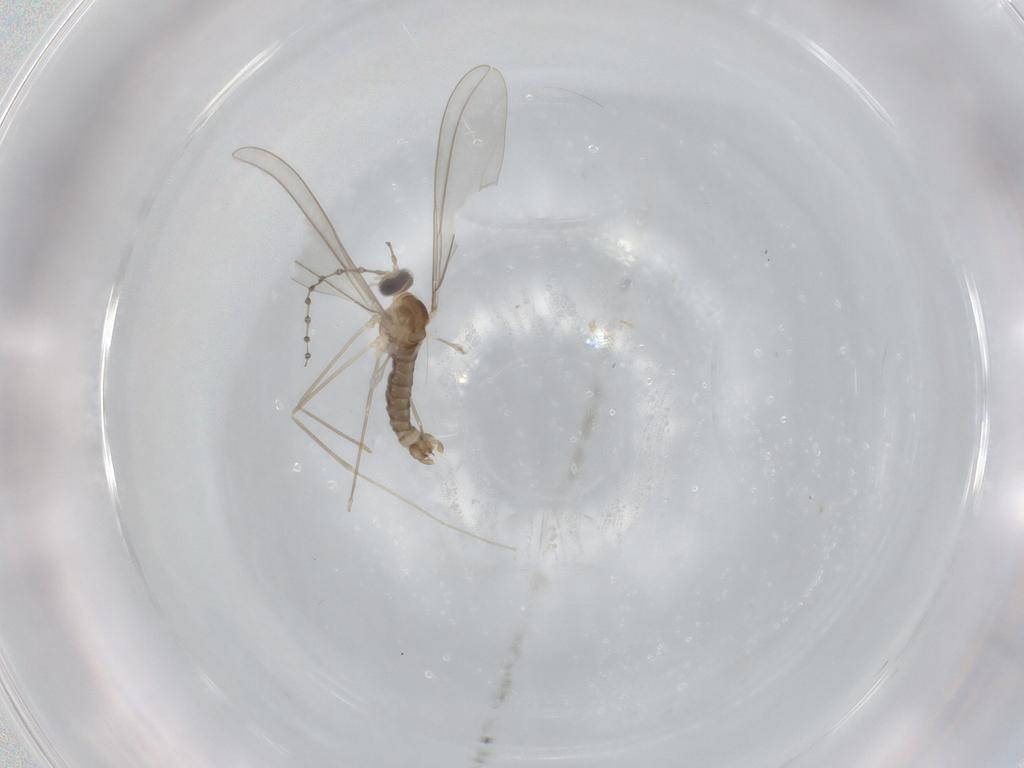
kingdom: Animalia
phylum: Arthropoda
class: Insecta
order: Diptera
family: Cecidomyiidae
